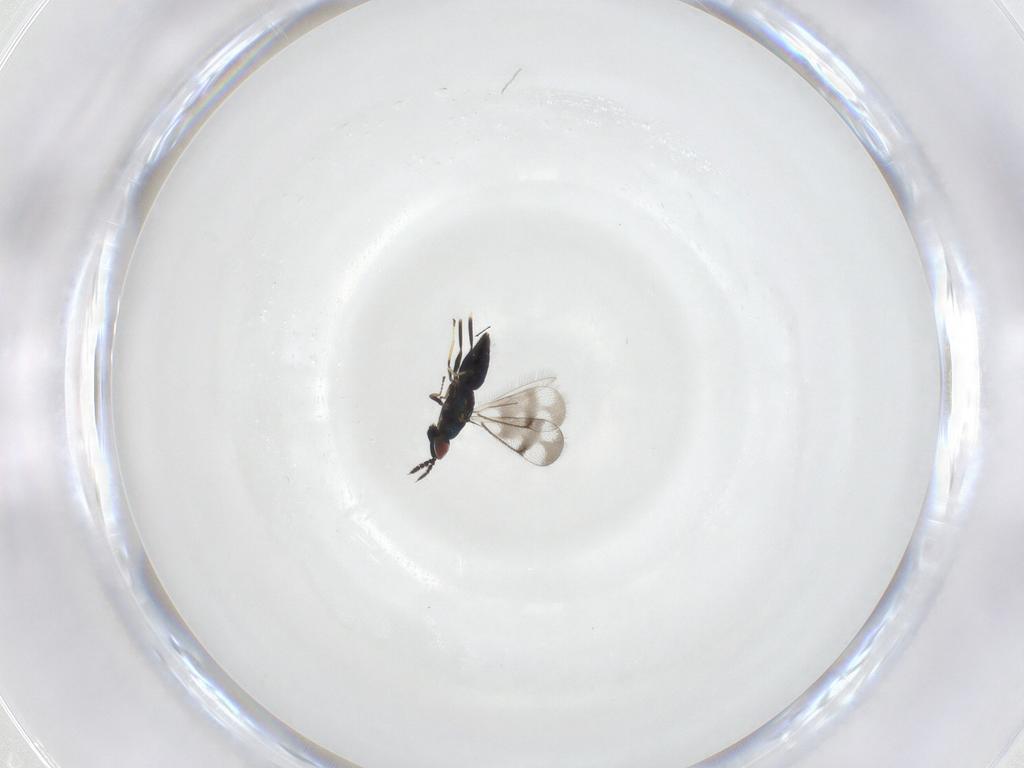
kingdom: Animalia
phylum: Arthropoda
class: Insecta
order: Hymenoptera
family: Eulophidae
